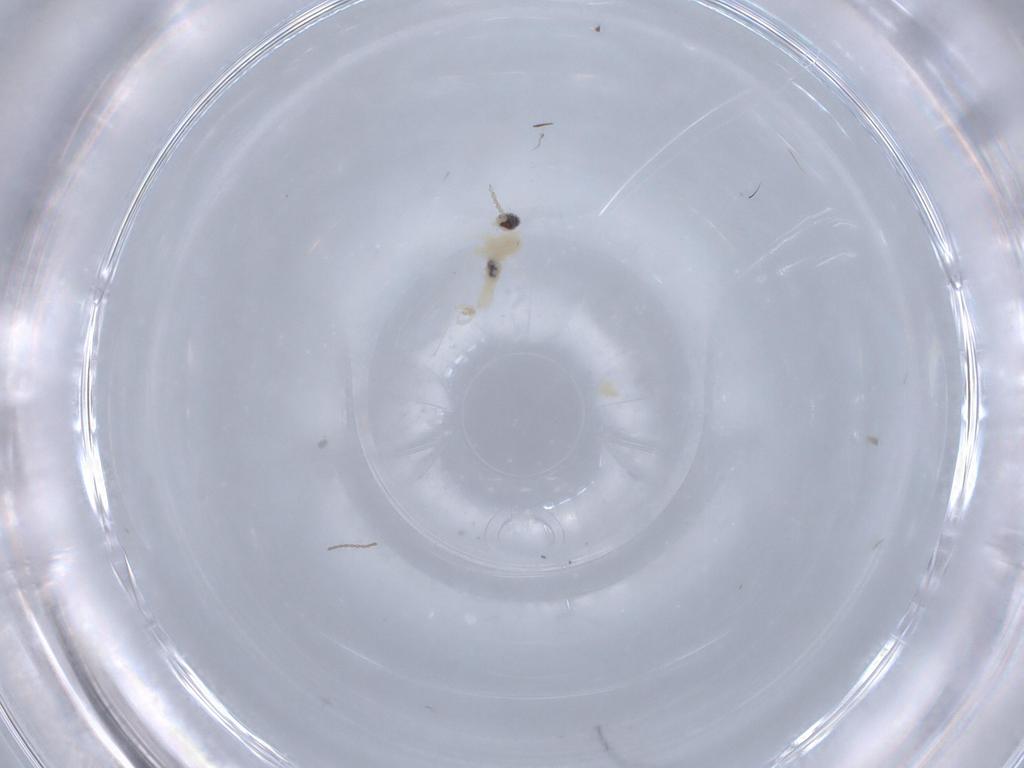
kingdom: Animalia
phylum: Arthropoda
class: Insecta
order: Diptera
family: Cecidomyiidae
